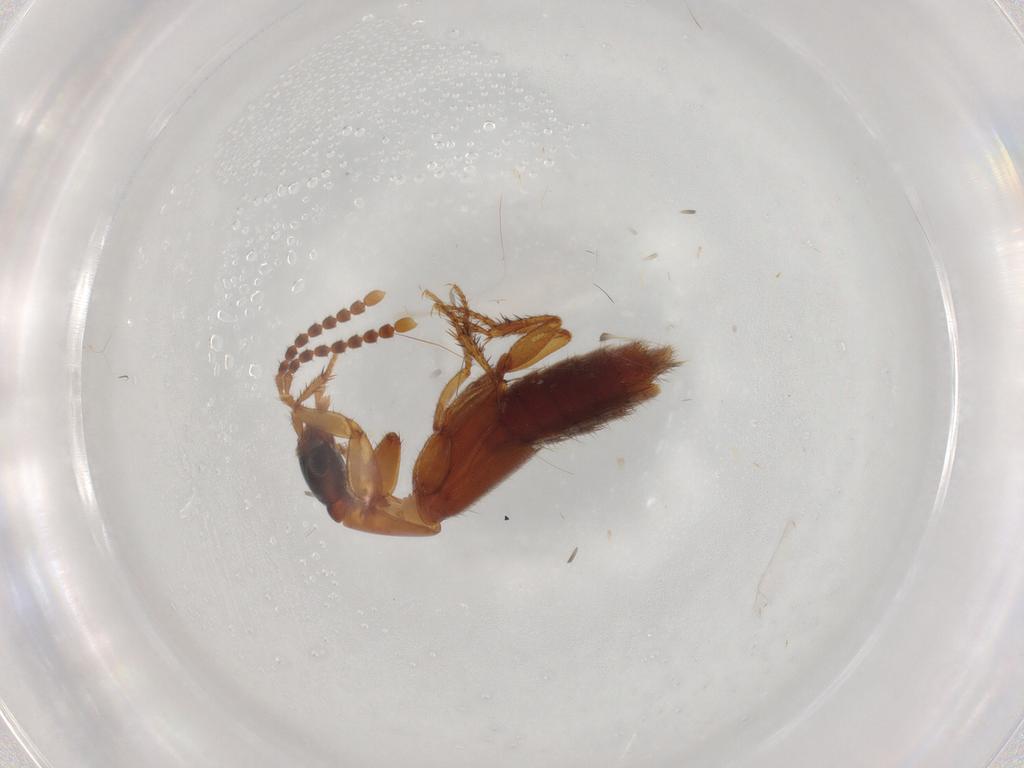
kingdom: Animalia
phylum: Arthropoda
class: Insecta
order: Coleoptera
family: Staphylinidae
